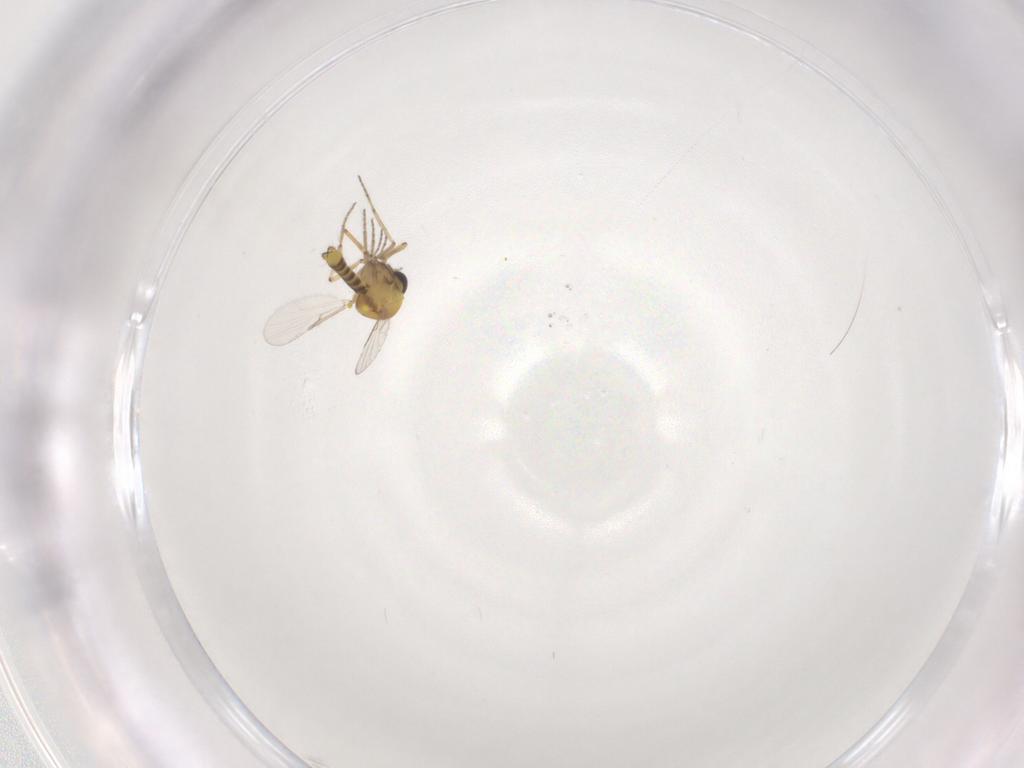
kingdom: Animalia
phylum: Arthropoda
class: Insecta
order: Diptera
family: Ceratopogonidae
